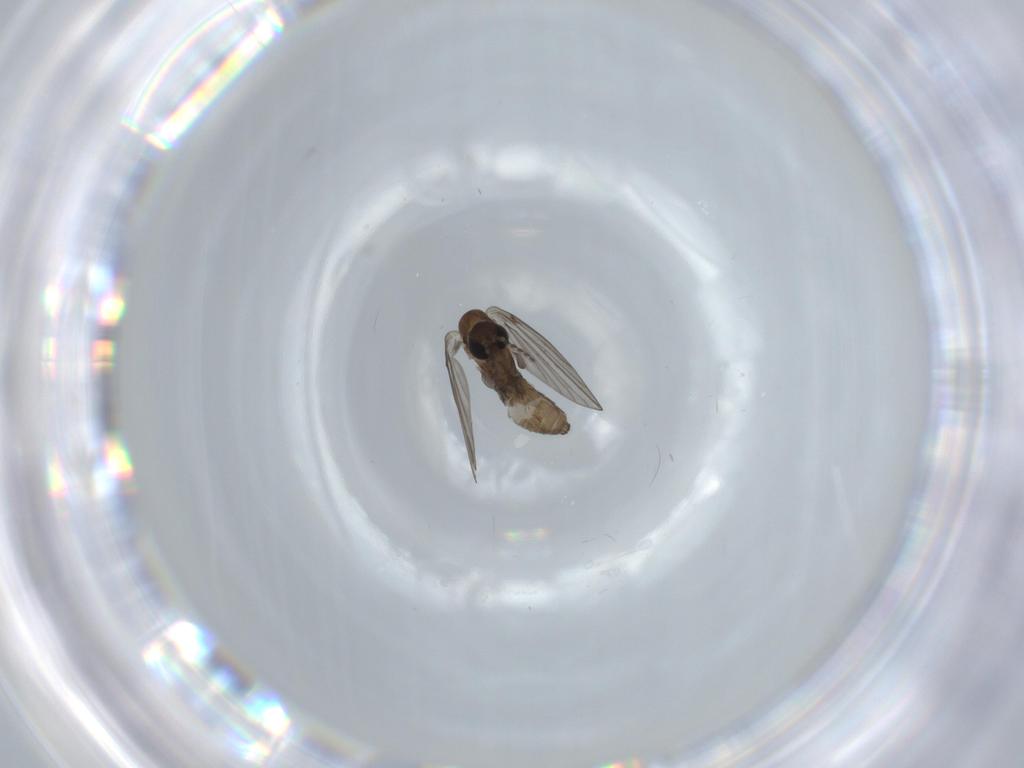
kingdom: Animalia
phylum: Arthropoda
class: Insecta
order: Diptera
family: Psychodidae
